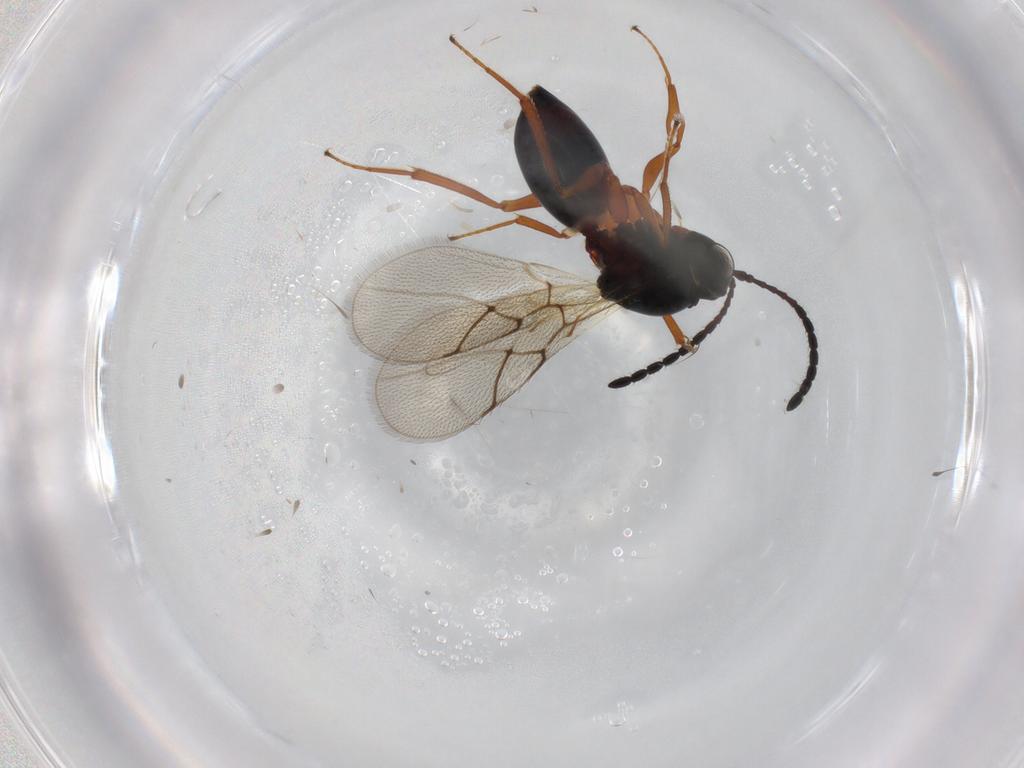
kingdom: Animalia
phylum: Arthropoda
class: Insecta
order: Hymenoptera
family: Figitidae
